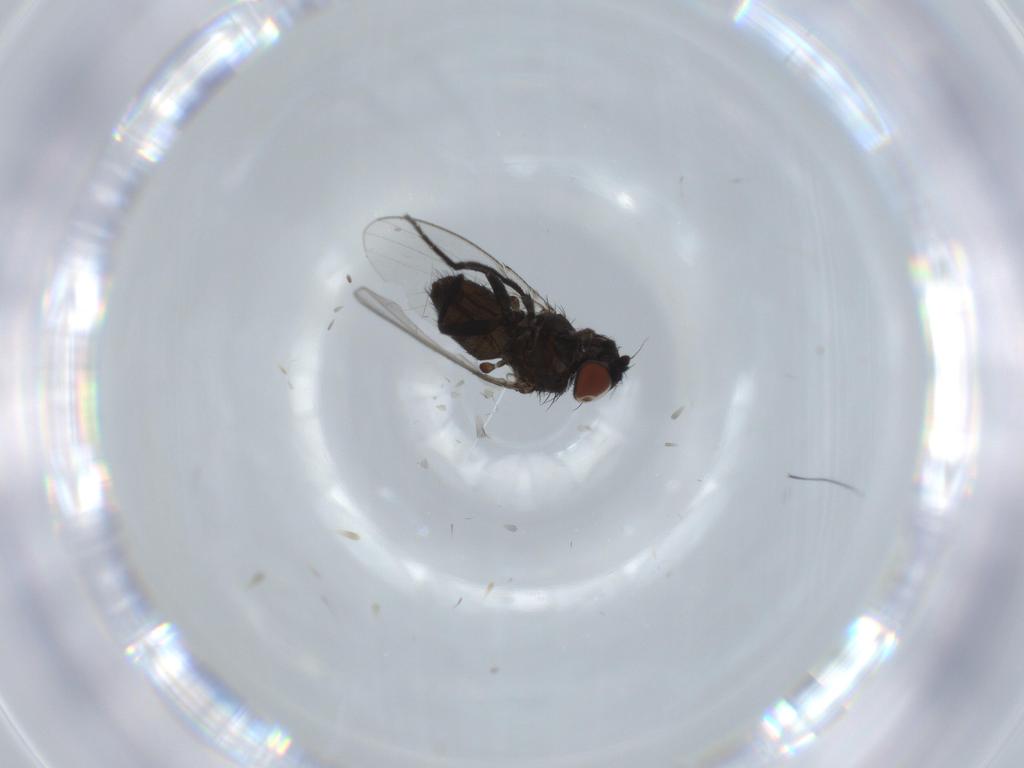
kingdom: Animalia
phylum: Arthropoda
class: Insecta
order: Diptera
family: Milichiidae
